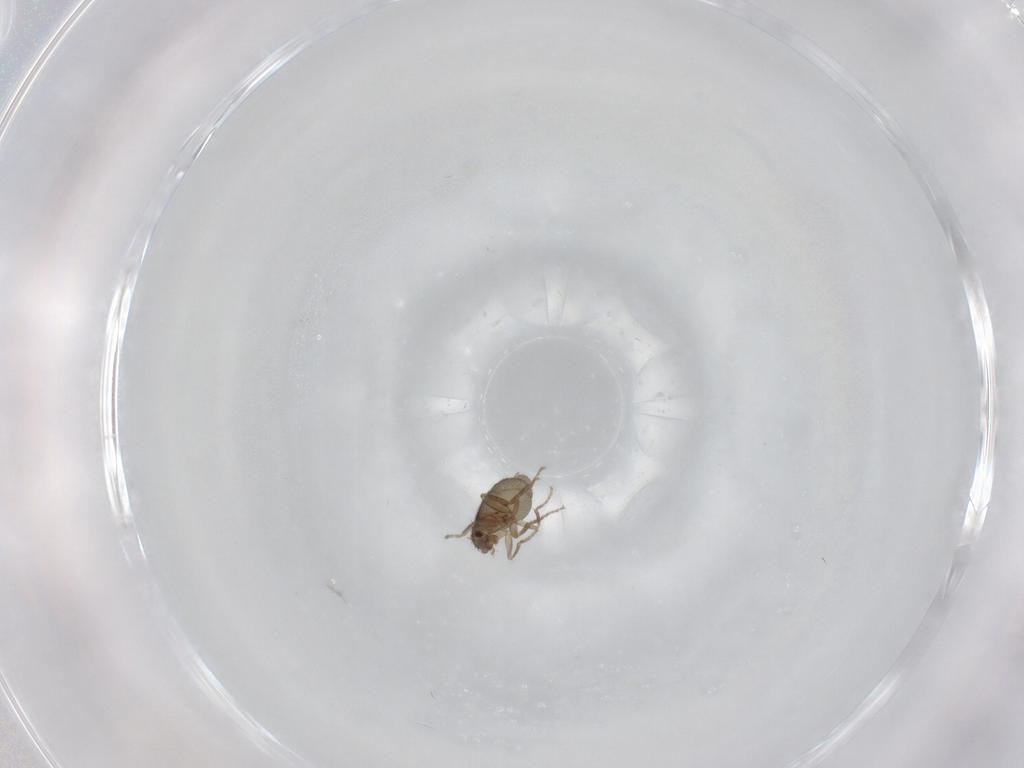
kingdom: Animalia
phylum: Arthropoda
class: Insecta
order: Diptera
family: Phoridae
